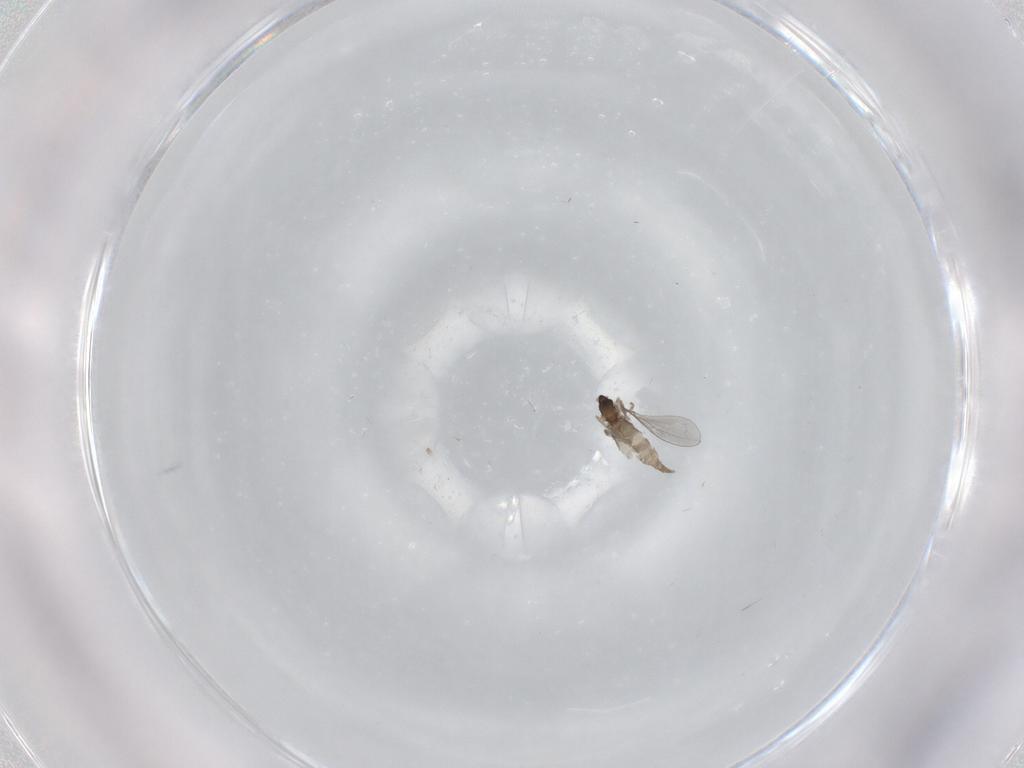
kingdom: Animalia
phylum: Arthropoda
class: Insecta
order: Diptera
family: Cecidomyiidae
